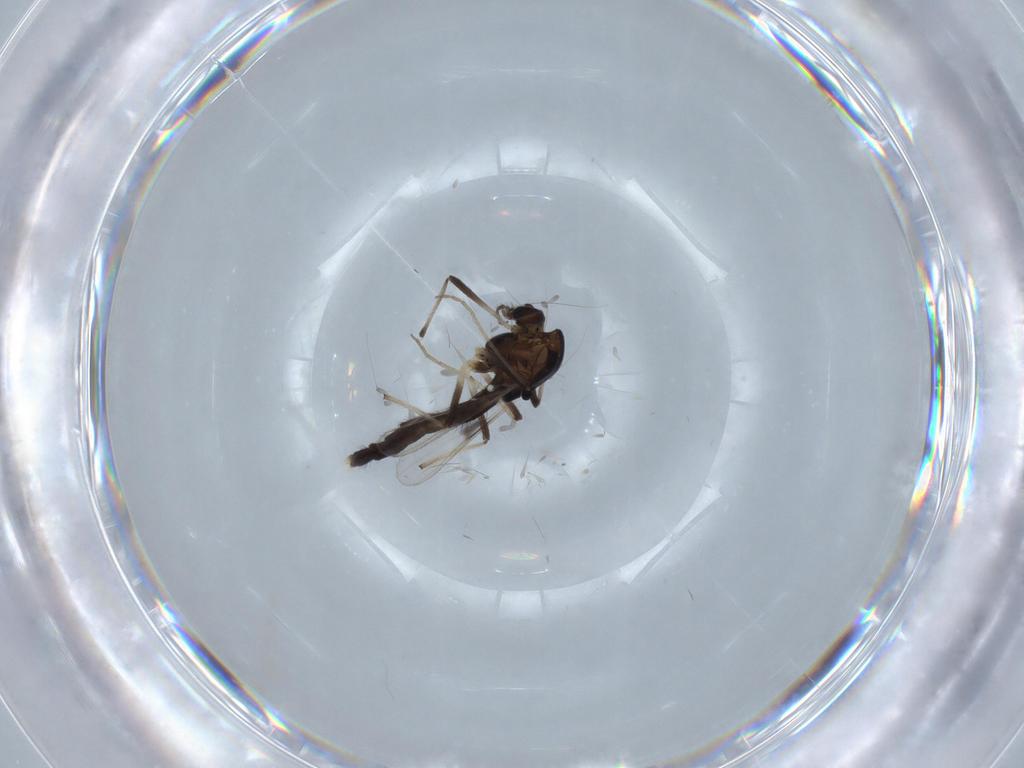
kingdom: Animalia
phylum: Arthropoda
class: Insecta
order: Diptera
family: Chironomidae
